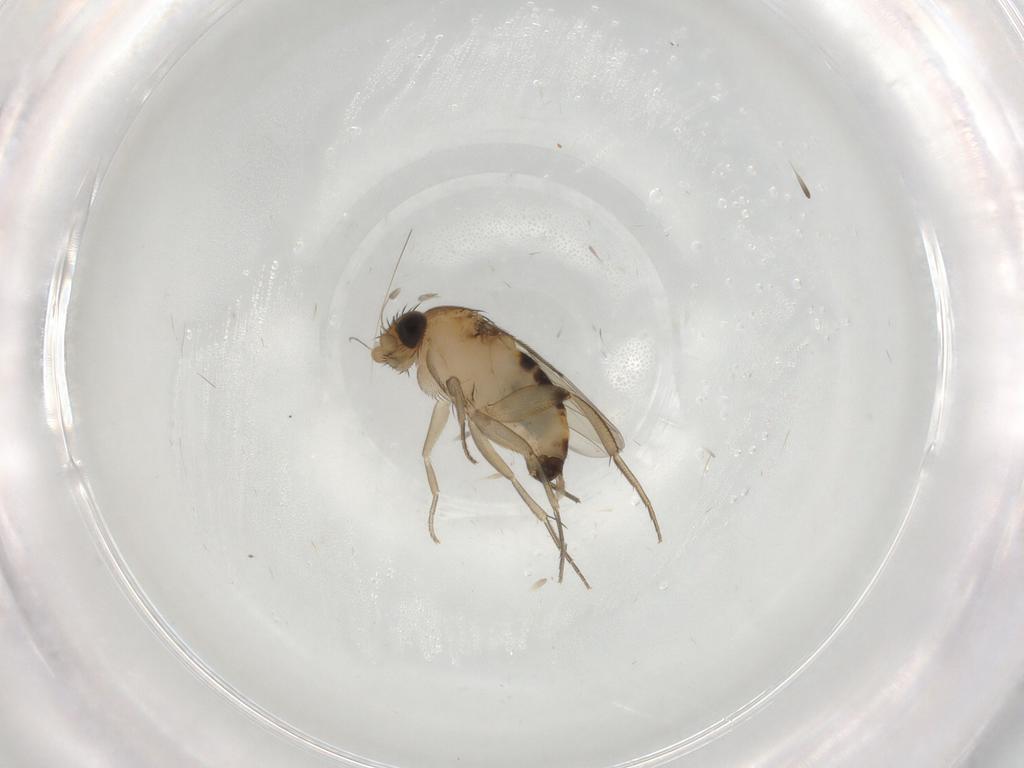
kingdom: Animalia
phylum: Arthropoda
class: Insecta
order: Diptera
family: Phoridae
